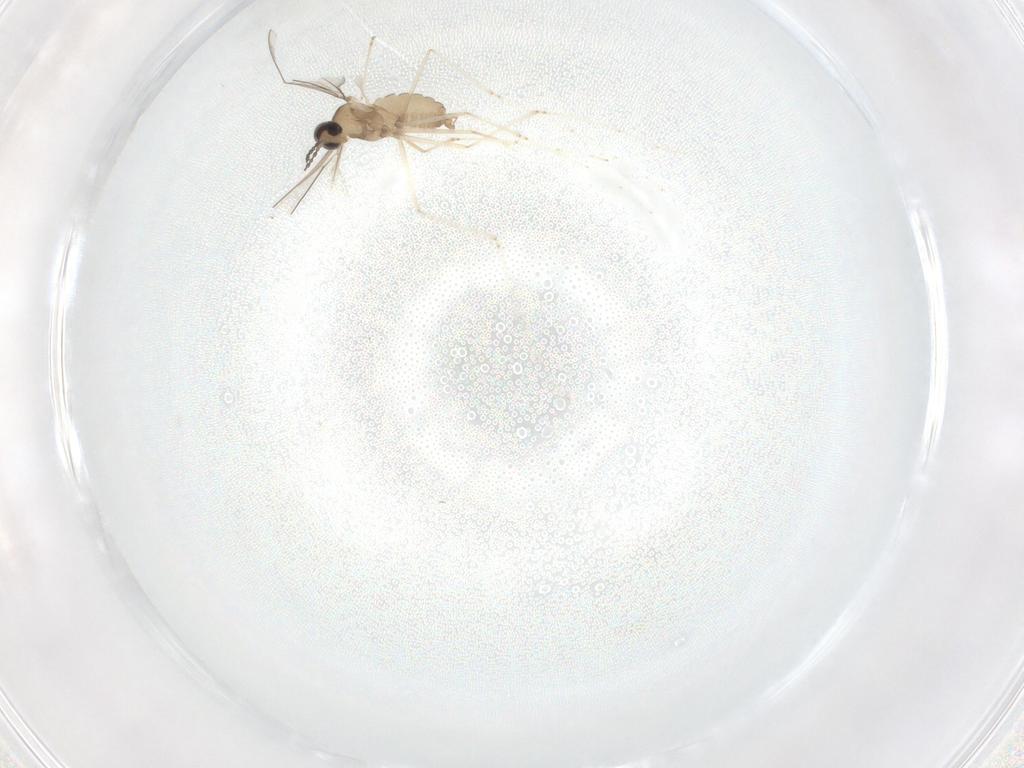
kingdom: Animalia
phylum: Arthropoda
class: Insecta
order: Diptera
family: Cecidomyiidae
